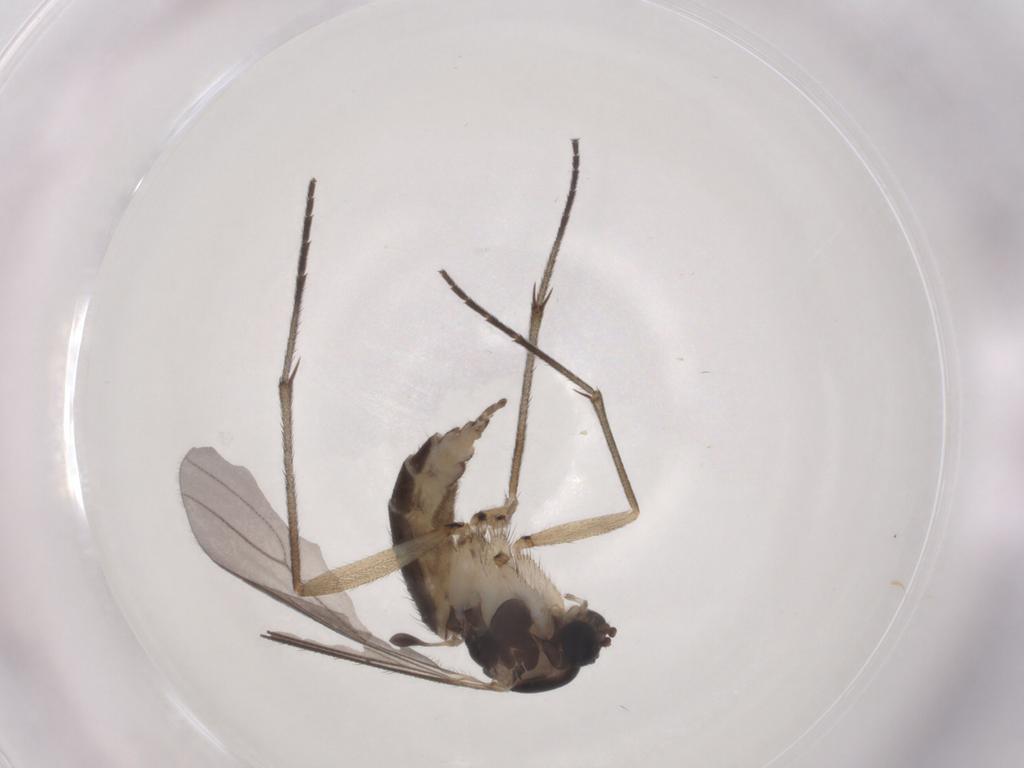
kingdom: Animalia
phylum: Arthropoda
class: Insecta
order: Diptera
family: Sciaridae
